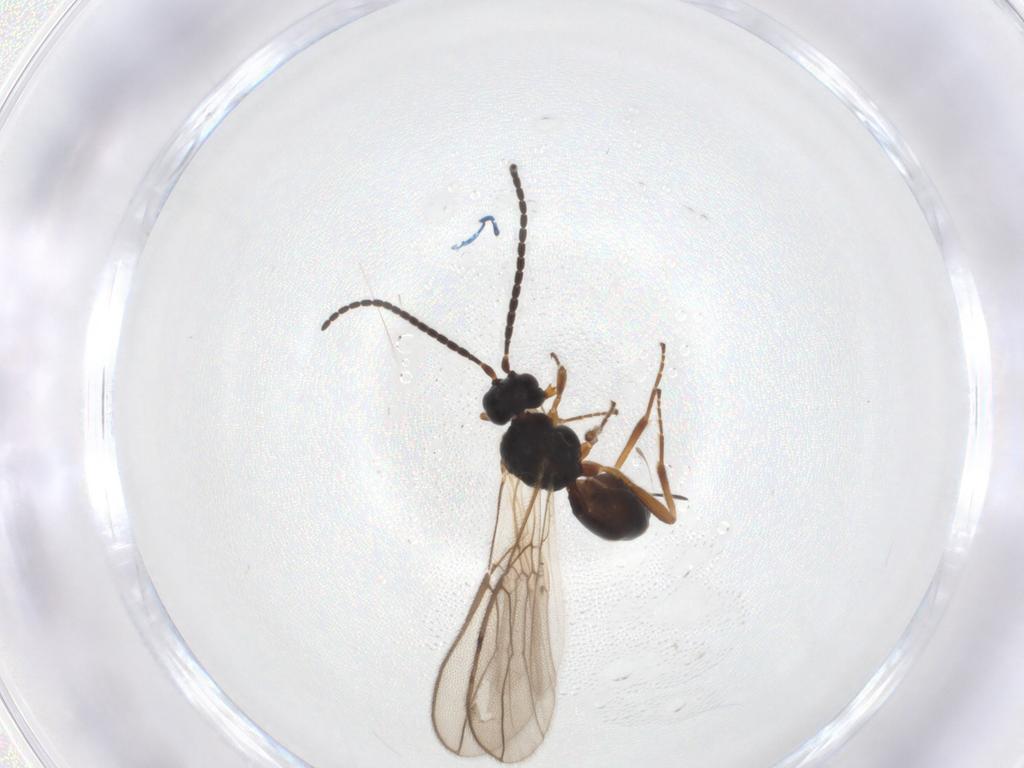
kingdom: Animalia
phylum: Arthropoda
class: Insecta
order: Hymenoptera
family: Braconidae
